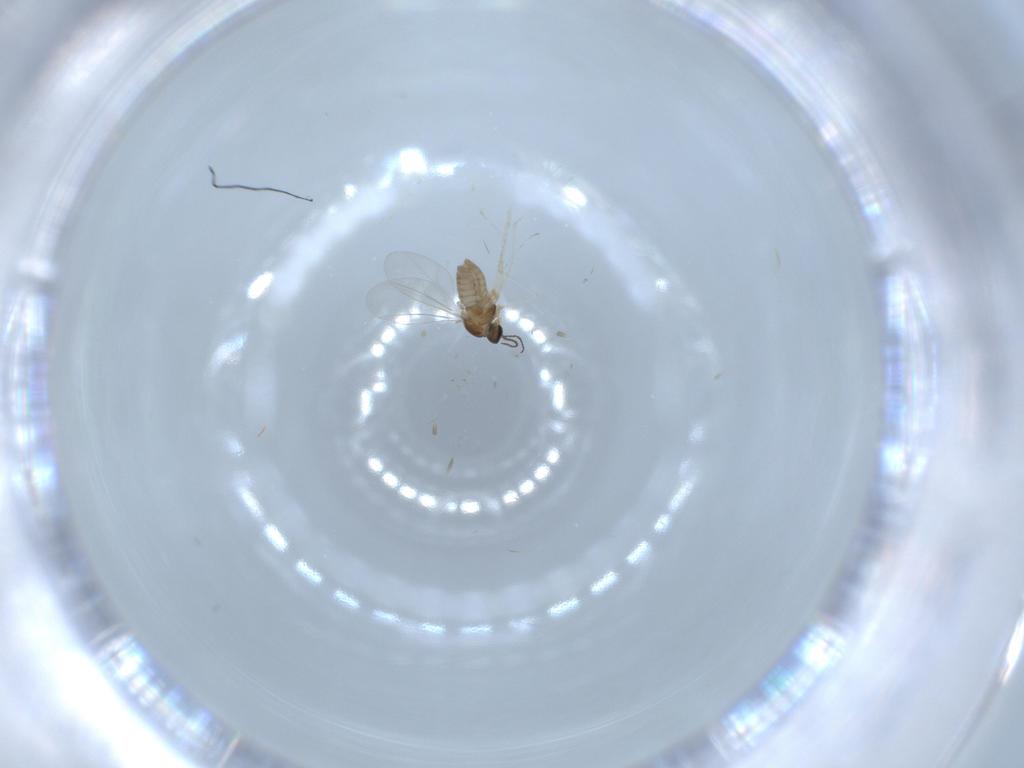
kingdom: Animalia
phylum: Arthropoda
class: Insecta
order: Diptera
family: Cecidomyiidae
